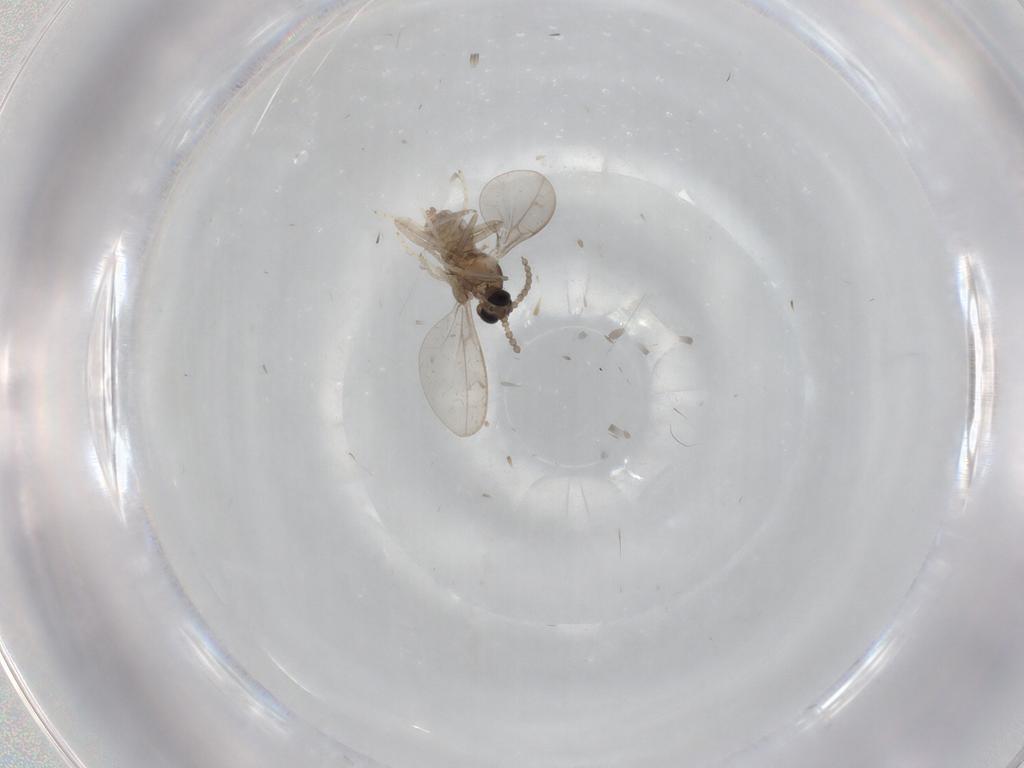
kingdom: Animalia
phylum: Arthropoda
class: Insecta
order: Diptera
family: Cecidomyiidae
